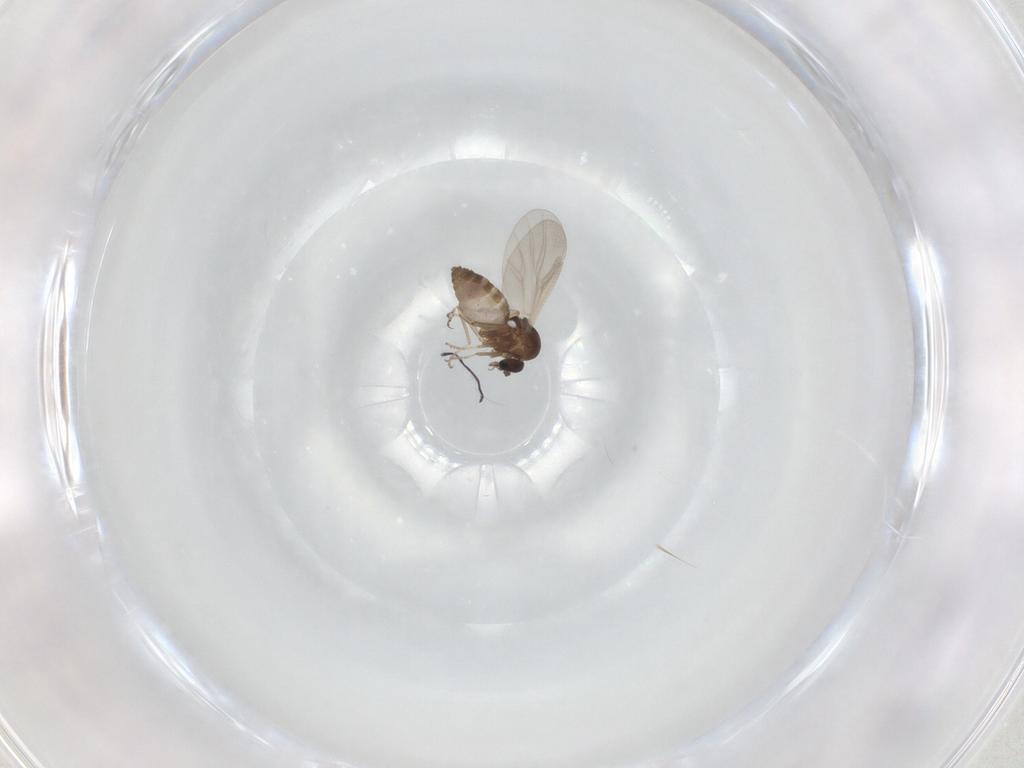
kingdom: Animalia
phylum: Arthropoda
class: Insecta
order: Diptera
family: Ceratopogonidae
